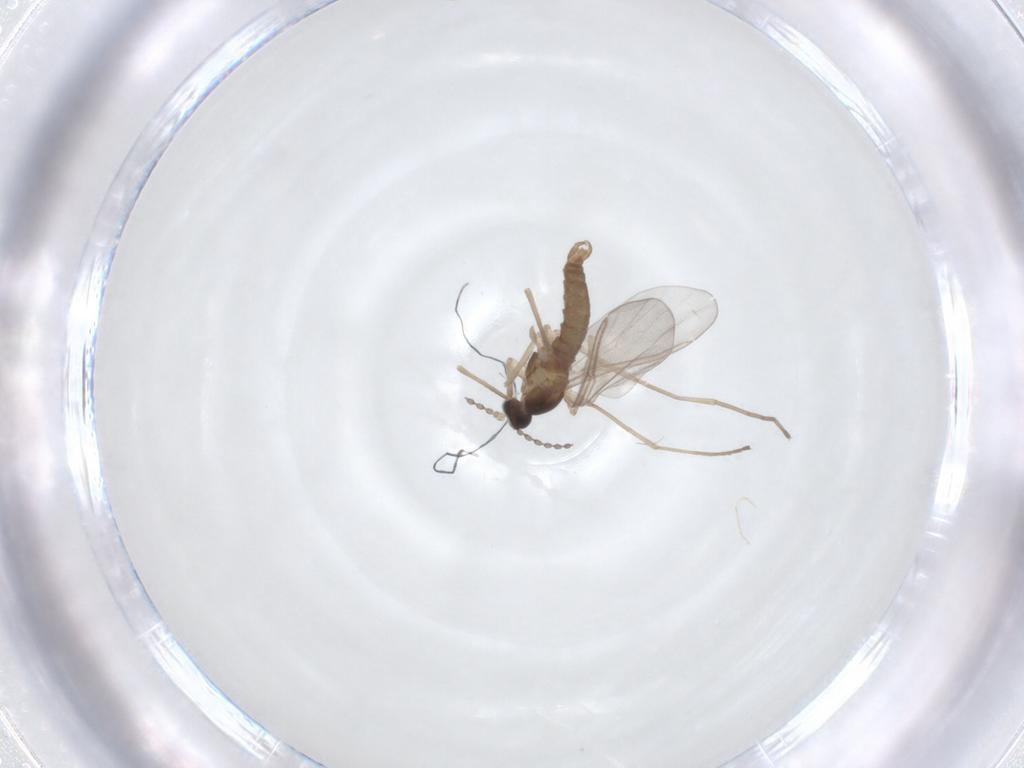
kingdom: Animalia
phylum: Arthropoda
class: Insecta
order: Diptera
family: Cecidomyiidae
